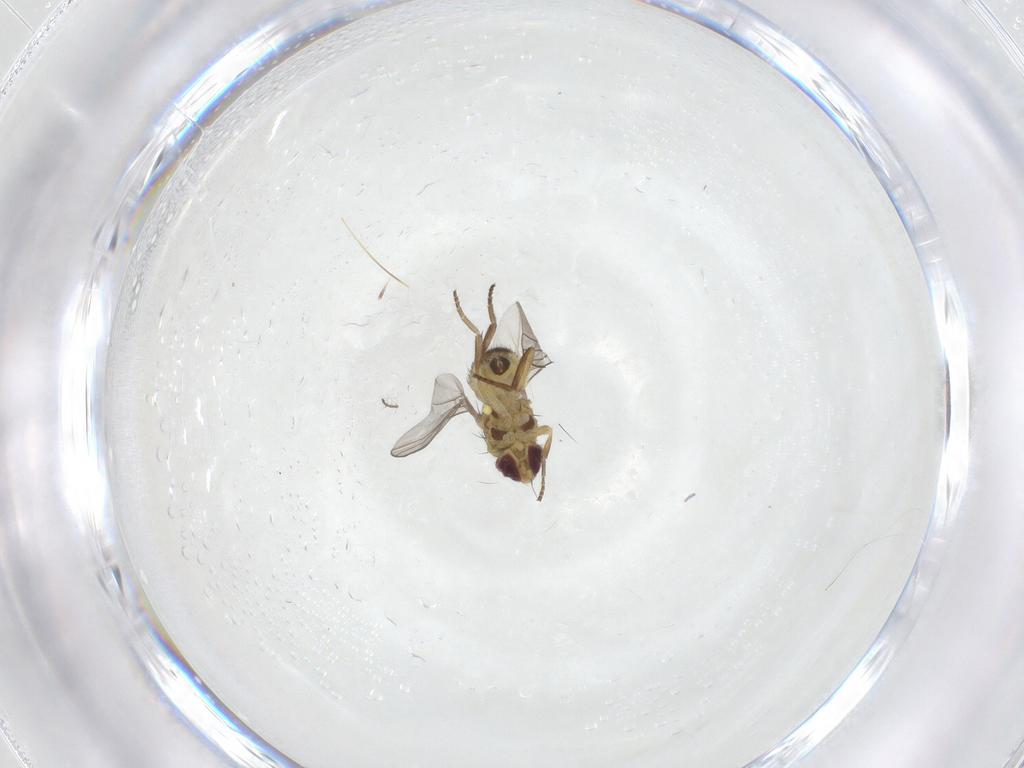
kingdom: Animalia
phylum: Arthropoda
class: Insecta
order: Diptera
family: Agromyzidae
